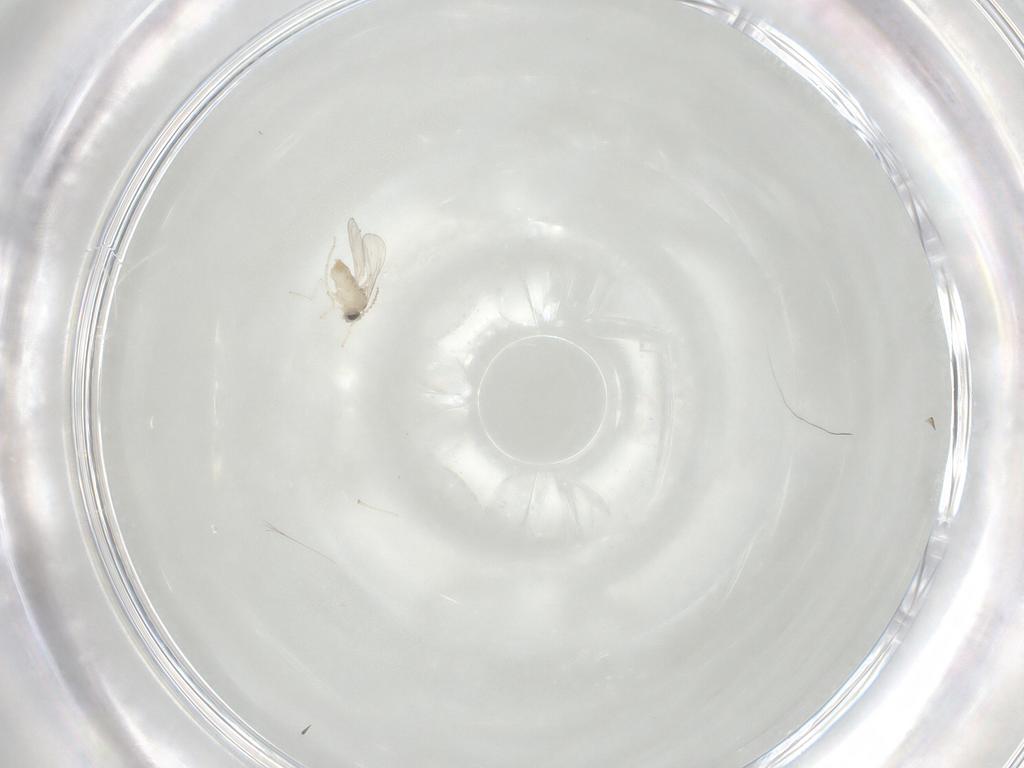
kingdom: Animalia
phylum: Arthropoda
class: Insecta
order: Diptera
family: Cecidomyiidae
